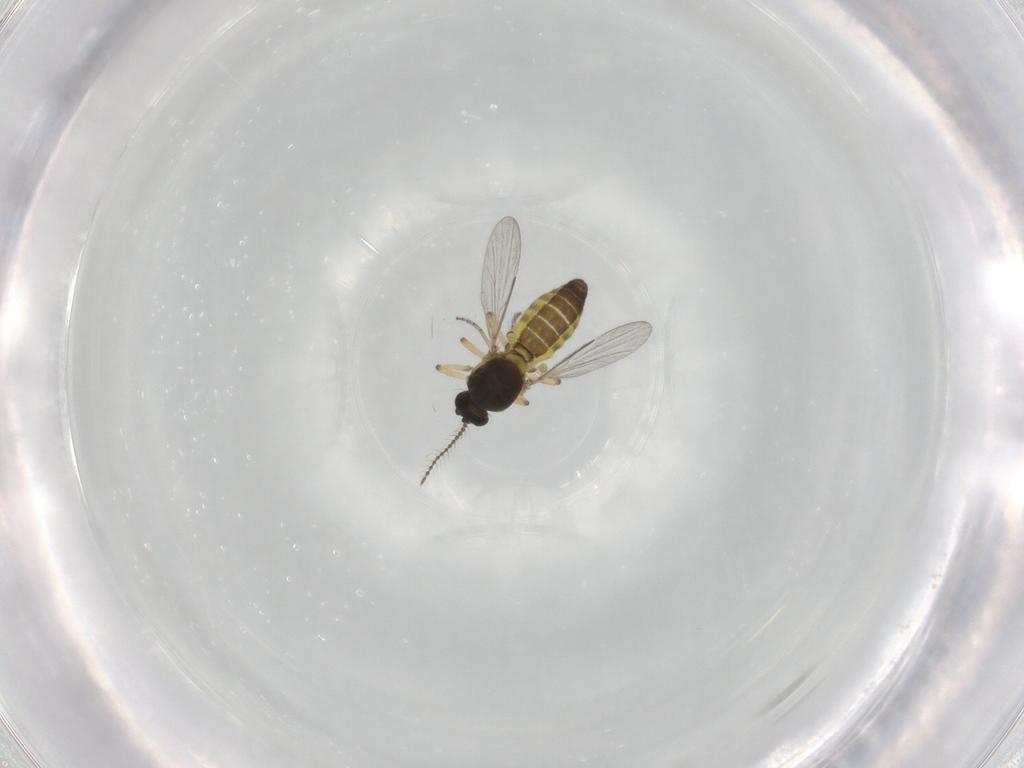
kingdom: Animalia
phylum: Arthropoda
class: Insecta
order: Diptera
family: Ceratopogonidae
